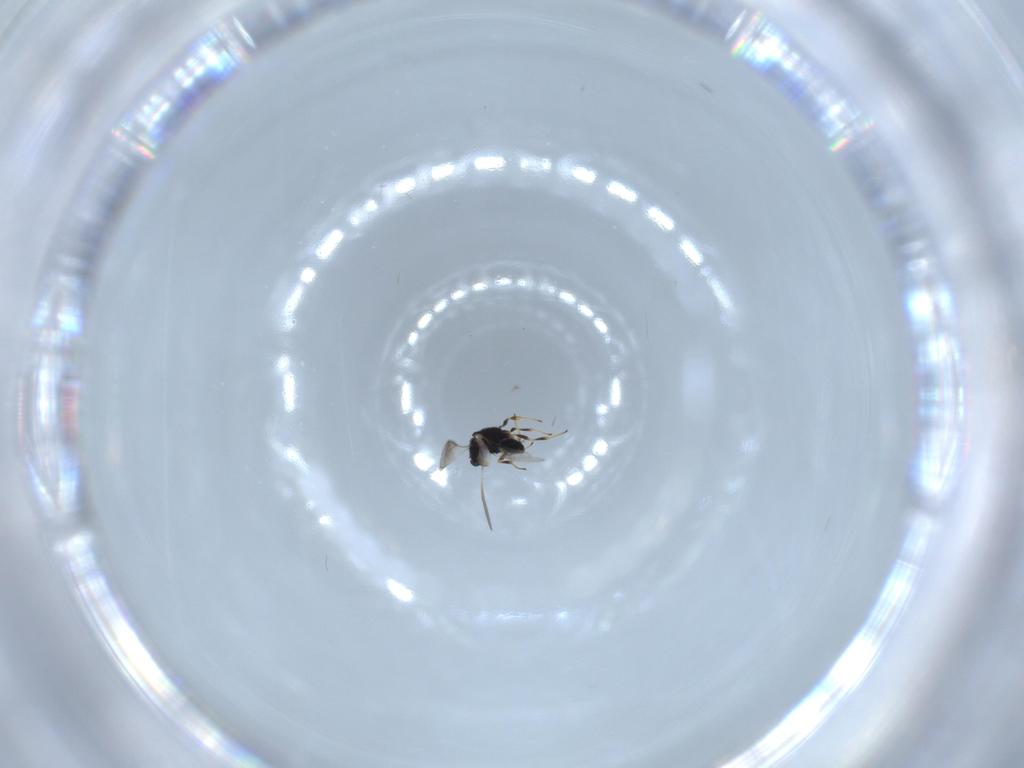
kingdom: Animalia
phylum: Arthropoda
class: Insecta
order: Hymenoptera
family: Scelionidae
